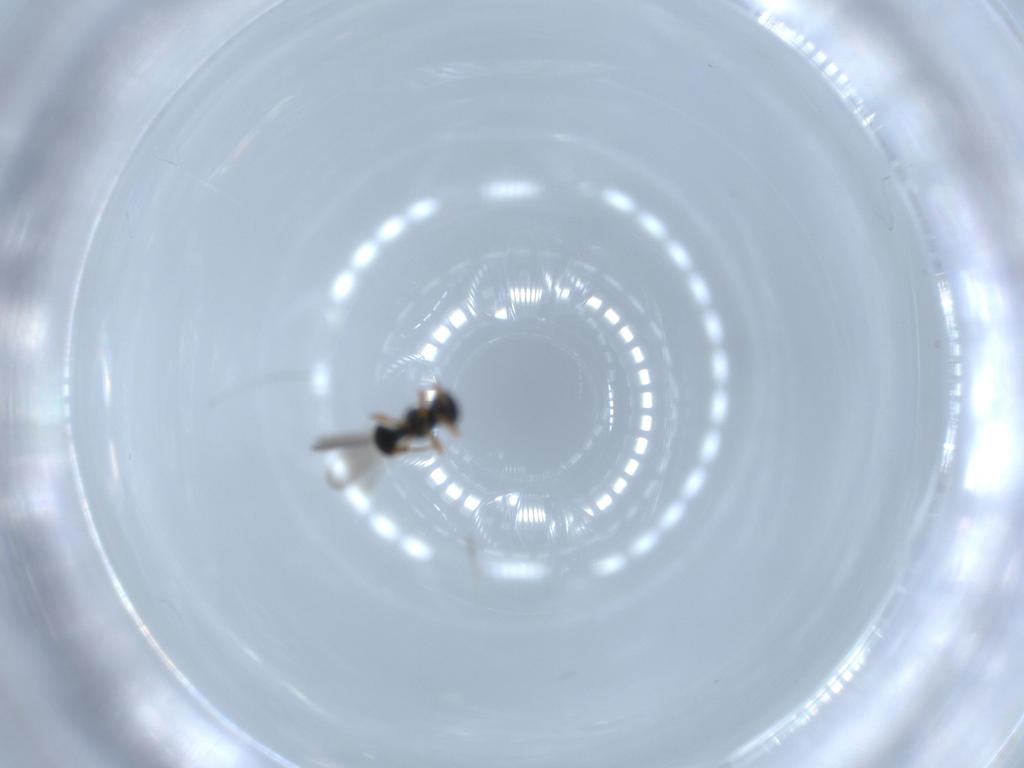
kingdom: Animalia
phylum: Arthropoda
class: Insecta
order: Hymenoptera
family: Platygastridae
